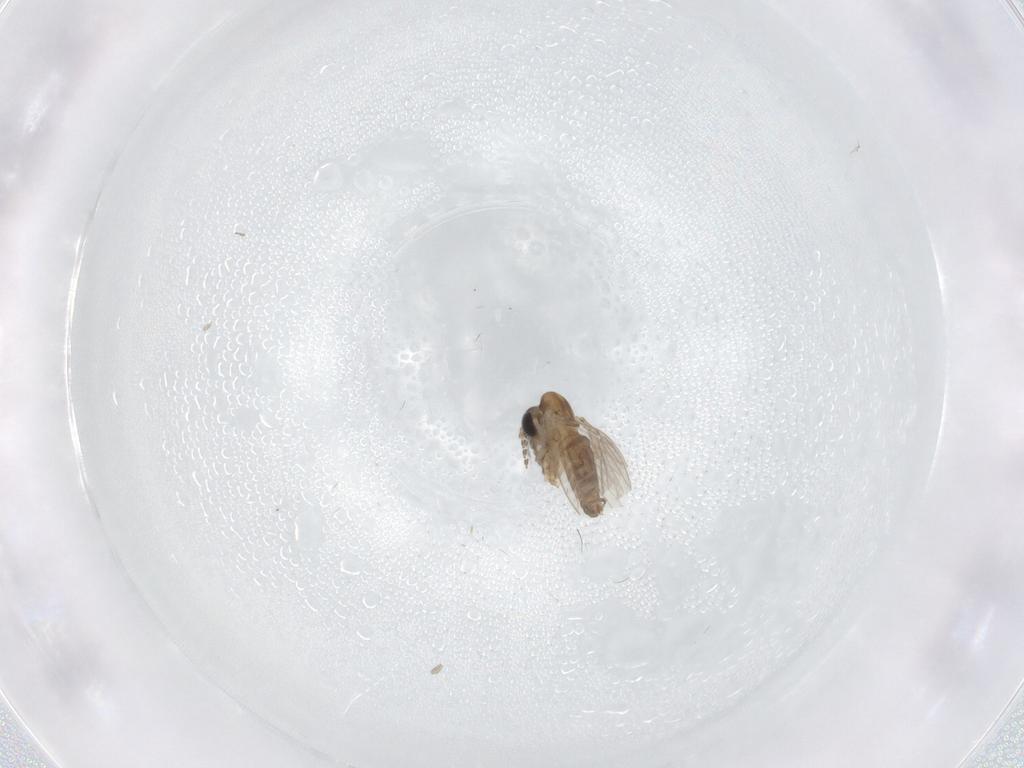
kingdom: Animalia
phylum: Arthropoda
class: Insecta
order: Diptera
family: Cecidomyiidae
